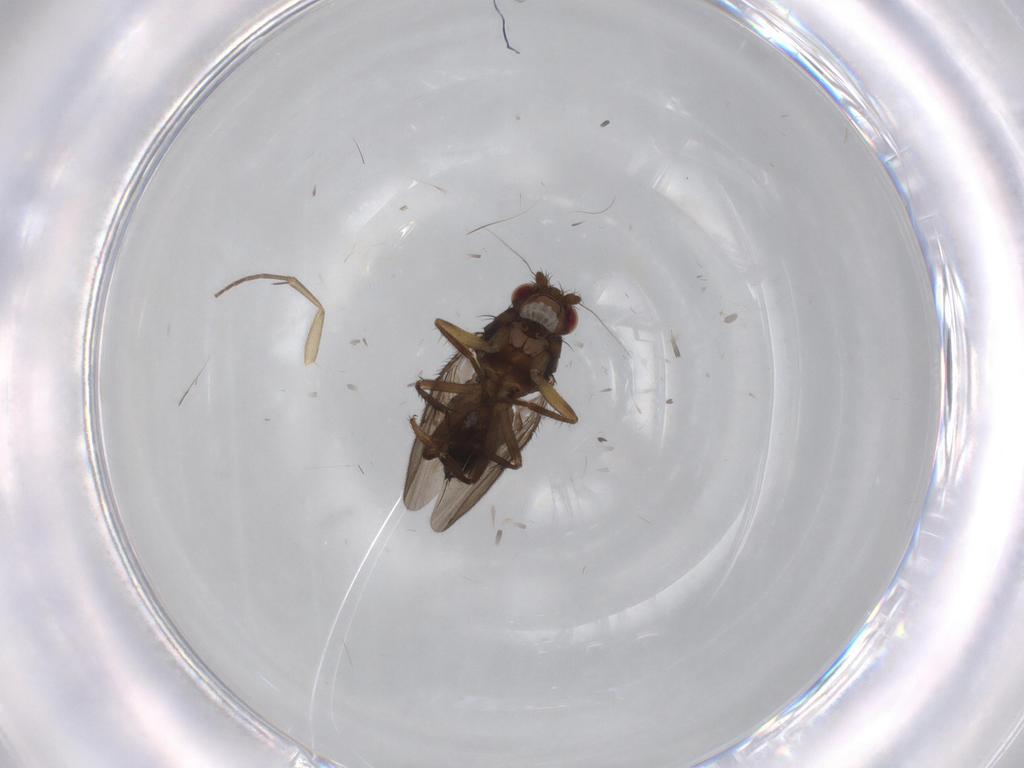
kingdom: Animalia
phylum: Arthropoda
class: Insecta
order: Diptera
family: Mycetophilidae
